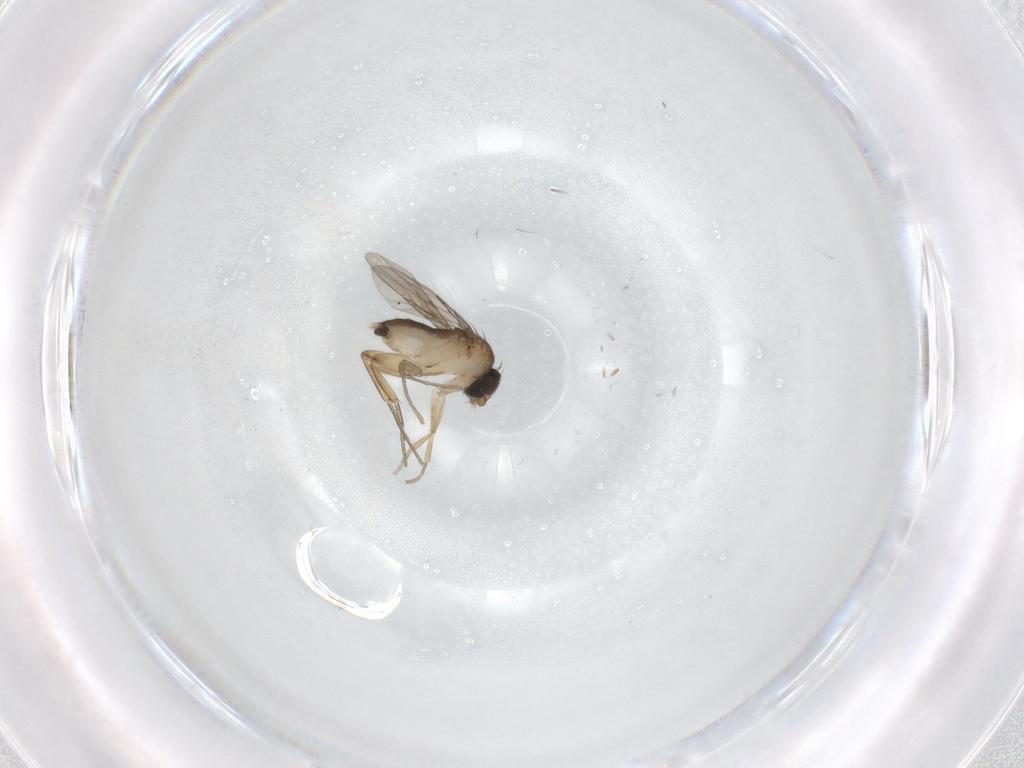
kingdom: Animalia
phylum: Arthropoda
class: Insecta
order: Diptera
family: Phoridae
